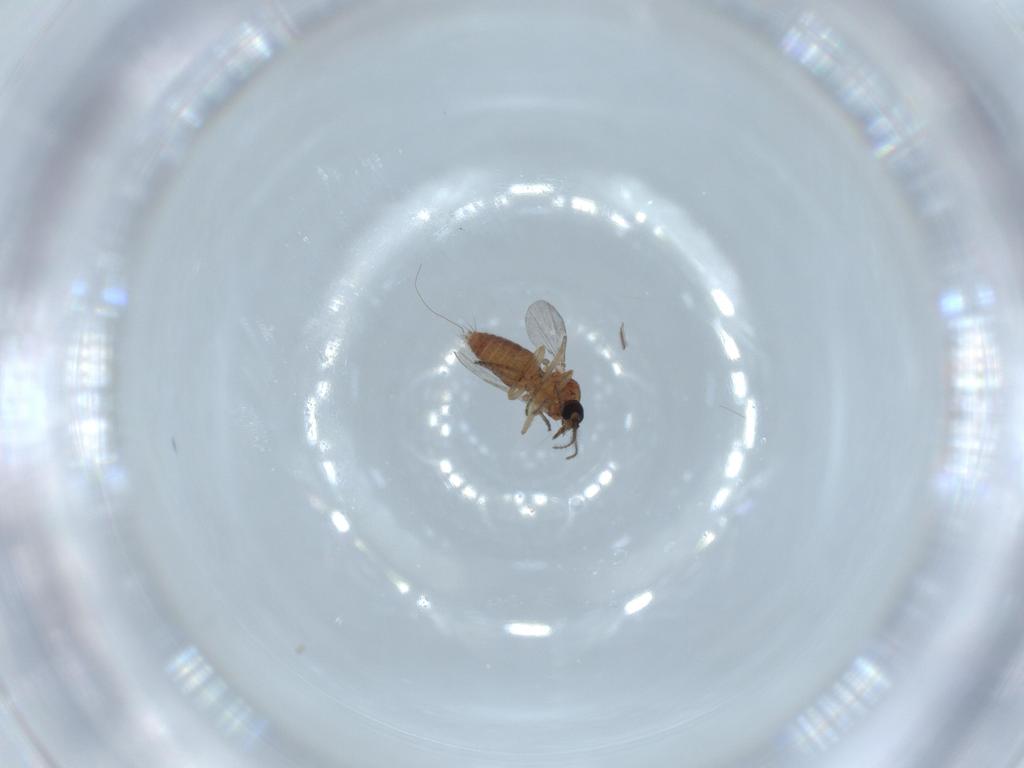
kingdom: Animalia
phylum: Arthropoda
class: Insecta
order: Diptera
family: Ceratopogonidae
